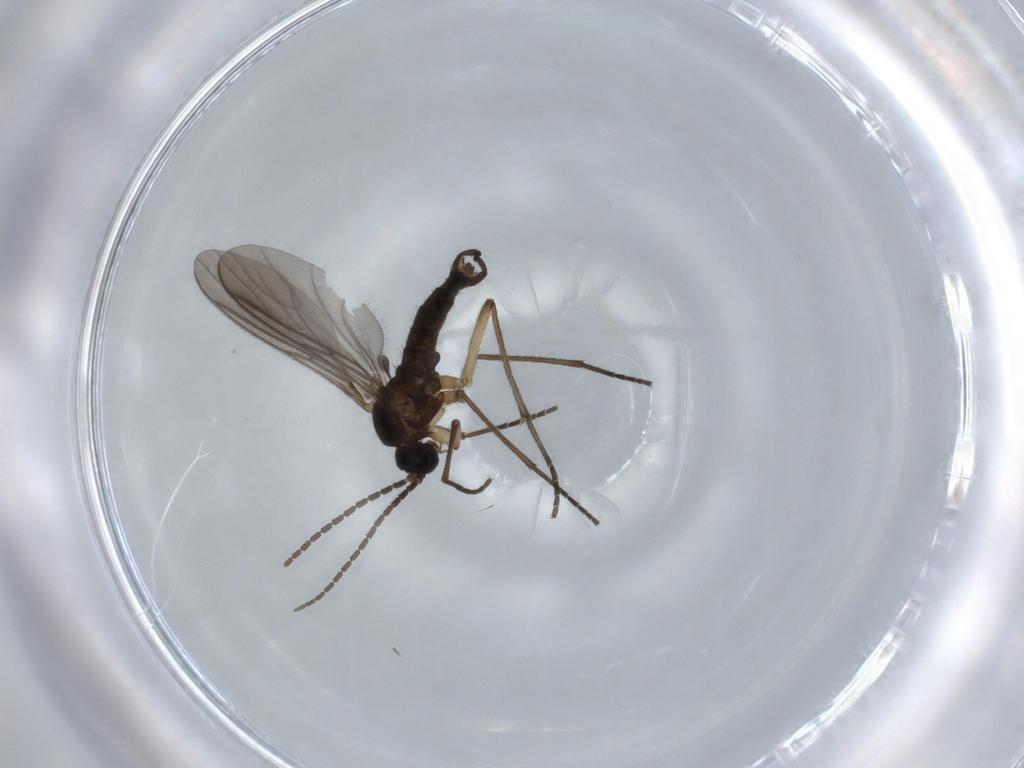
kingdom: Animalia
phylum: Arthropoda
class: Insecta
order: Diptera
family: Sciaridae
